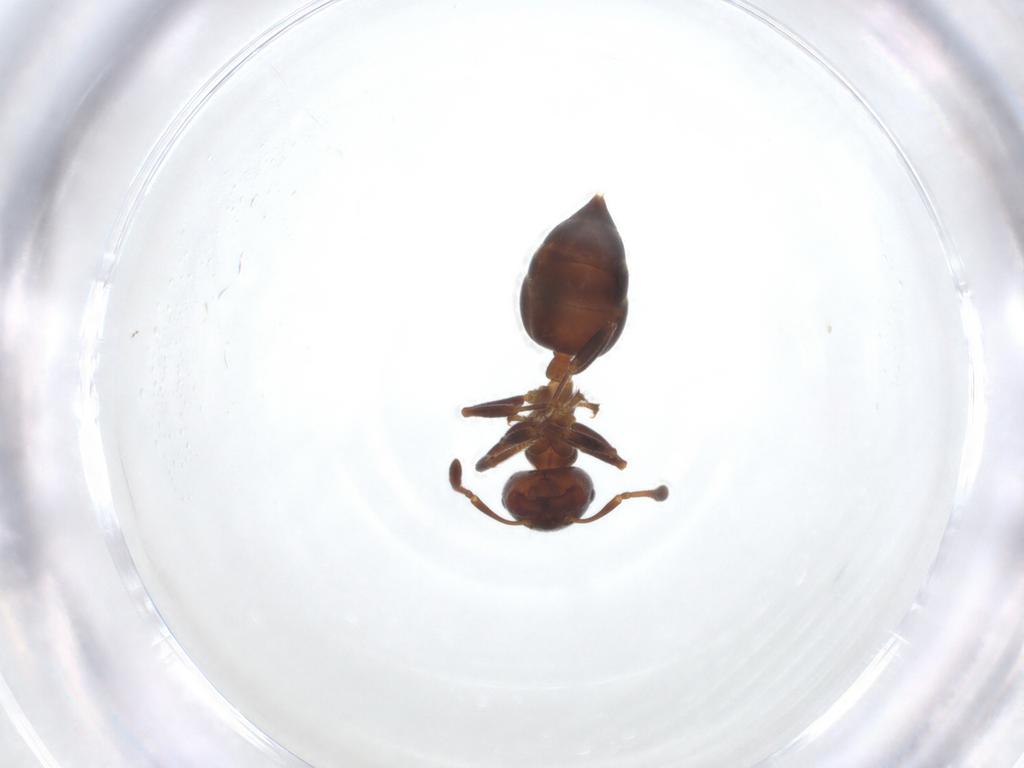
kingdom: Animalia
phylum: Arthropoda
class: Insecta
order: Hymenoptera
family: Formicidae
